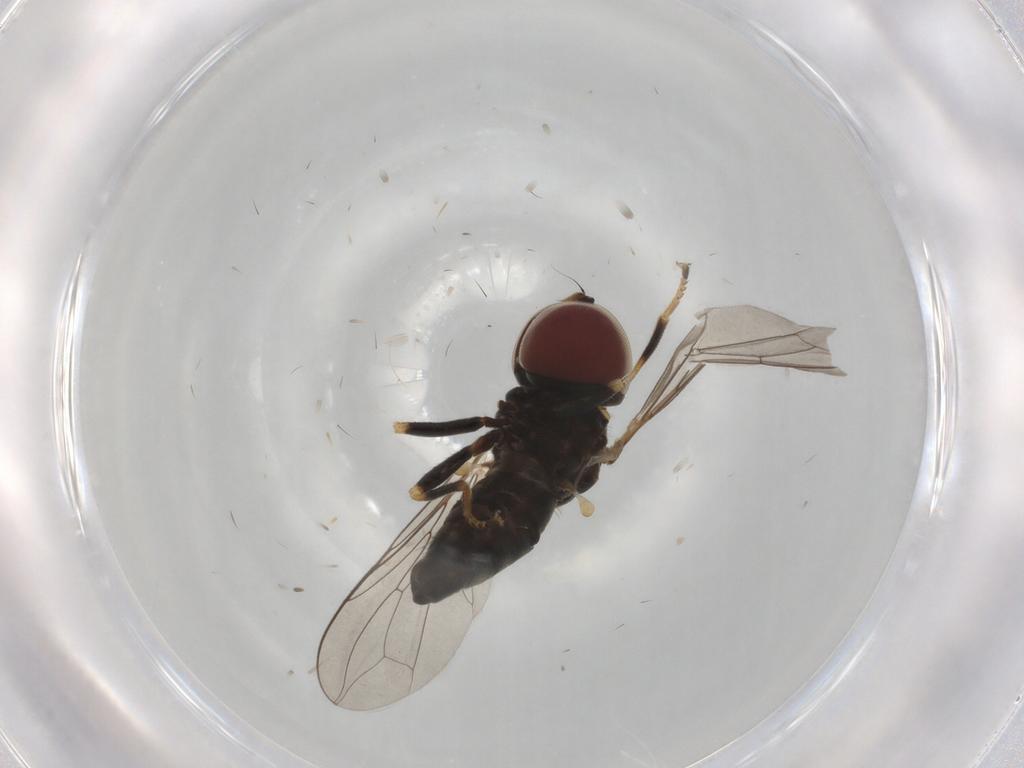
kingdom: Animalia
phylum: Arthropoda
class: Insecta
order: Diptera
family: Pipunculidae
